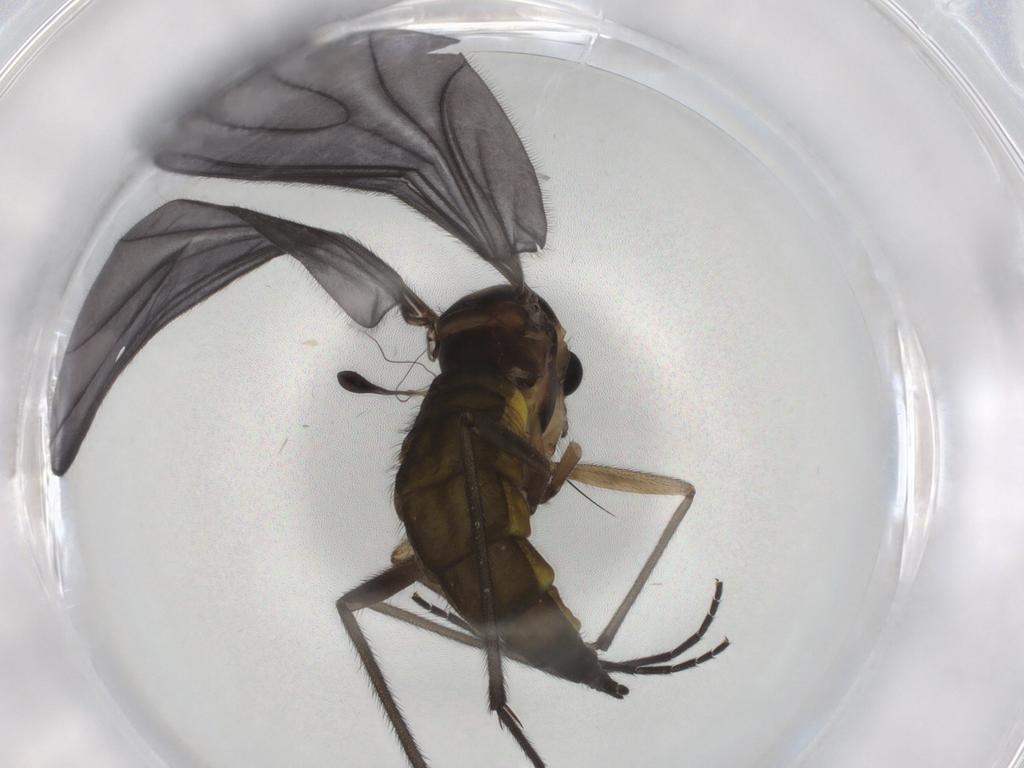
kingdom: Animalia
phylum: Arthropoda
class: Insecta
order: Diptera
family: Sciaridae
